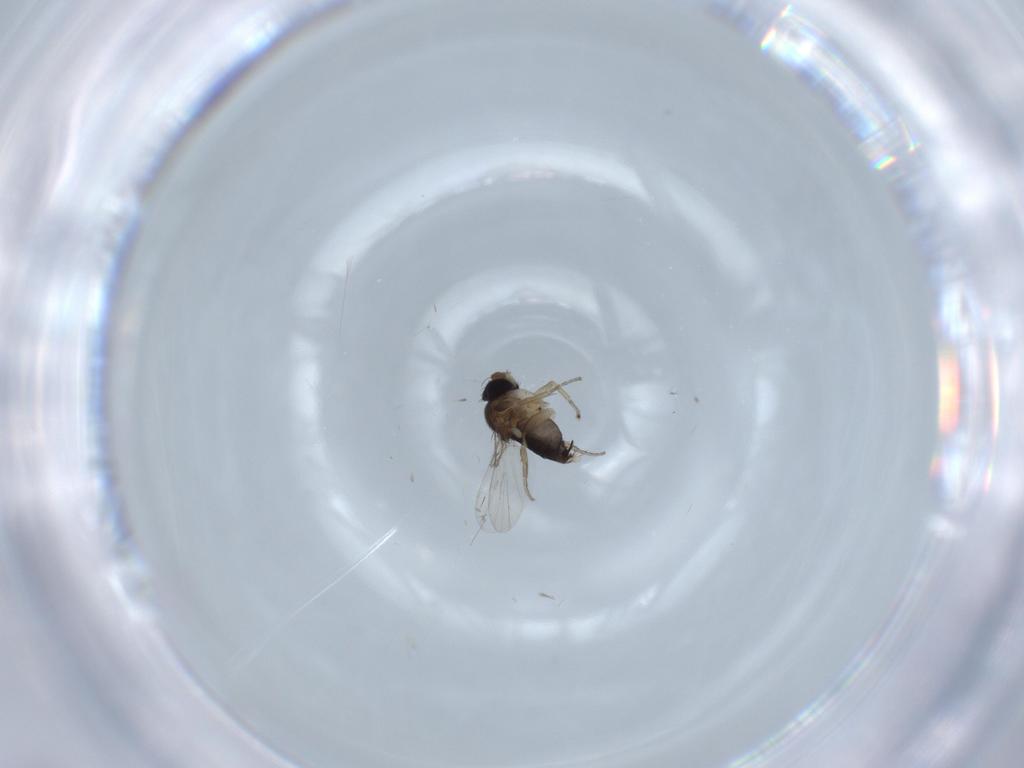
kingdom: Animalia
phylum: Arthropoda
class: Insecta
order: Diptera
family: Phoridae
